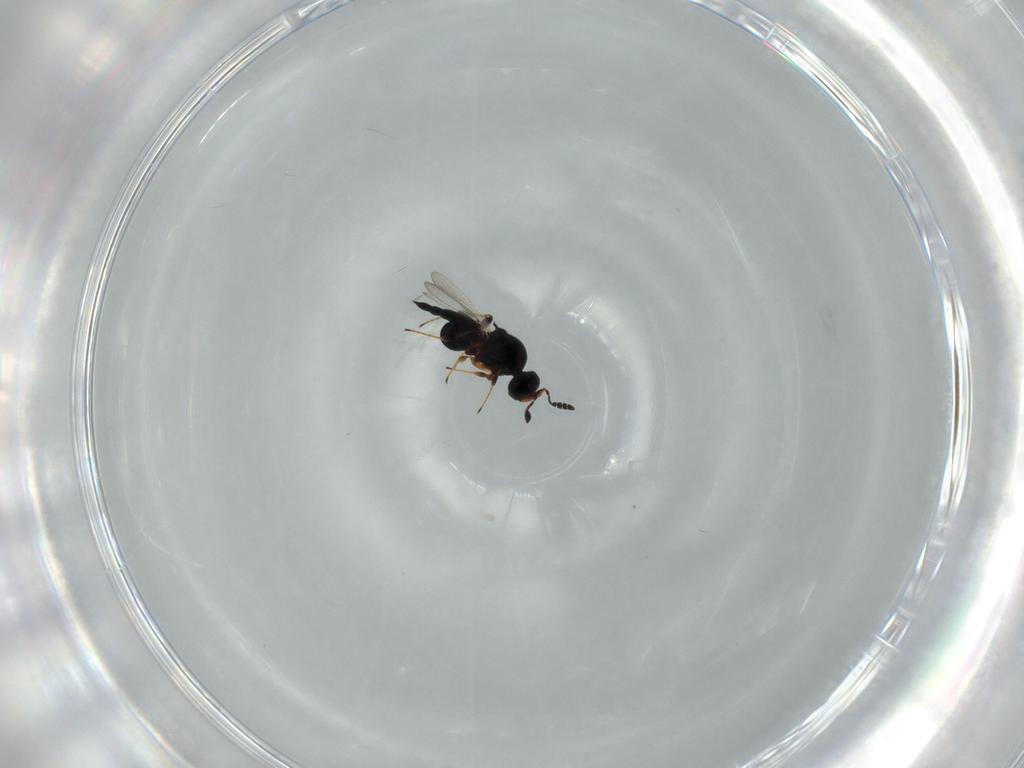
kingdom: Animalia
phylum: Arthropoda
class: Insecta
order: Hymenoptera
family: Platygastridae
